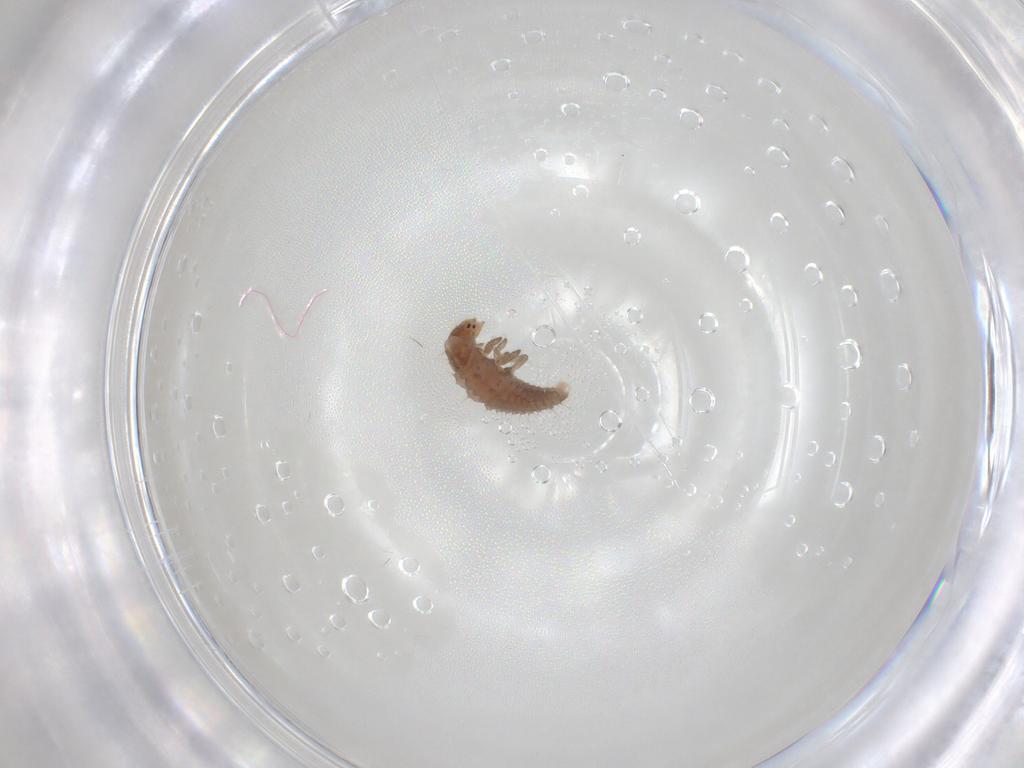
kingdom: Animalia
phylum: Arthropoda
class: Insecta
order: Coleoptera
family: Coccinellidae
